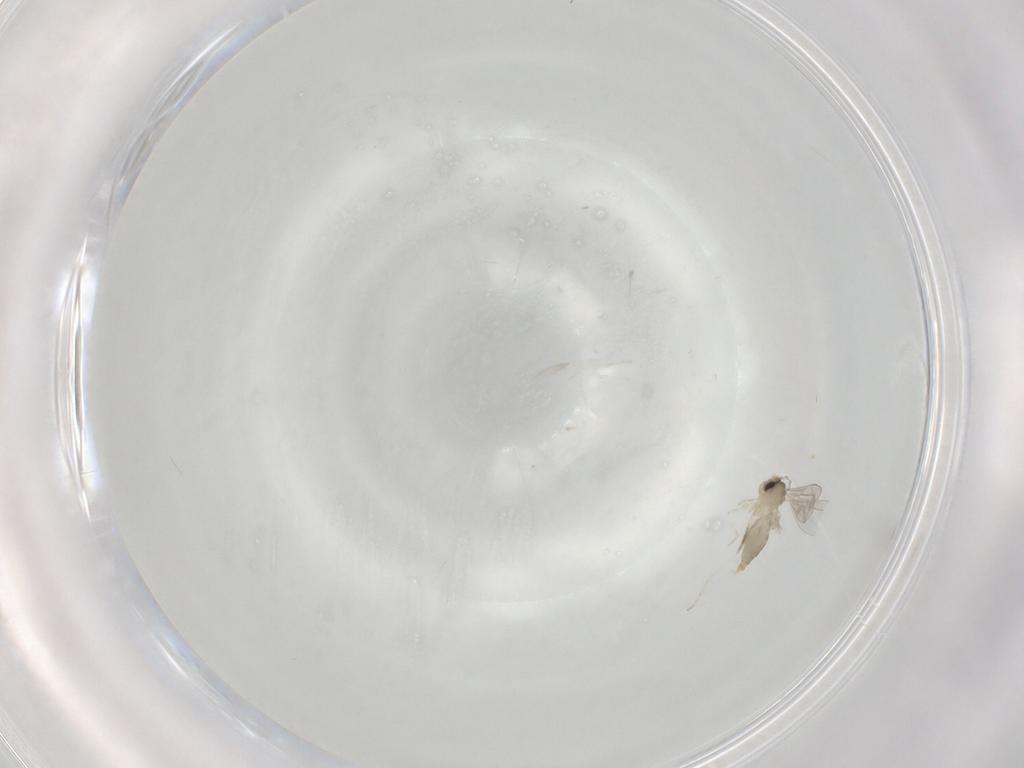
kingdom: Animalia
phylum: Arthropoda
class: Insecta
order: Diptera
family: Cecidomyiidae
